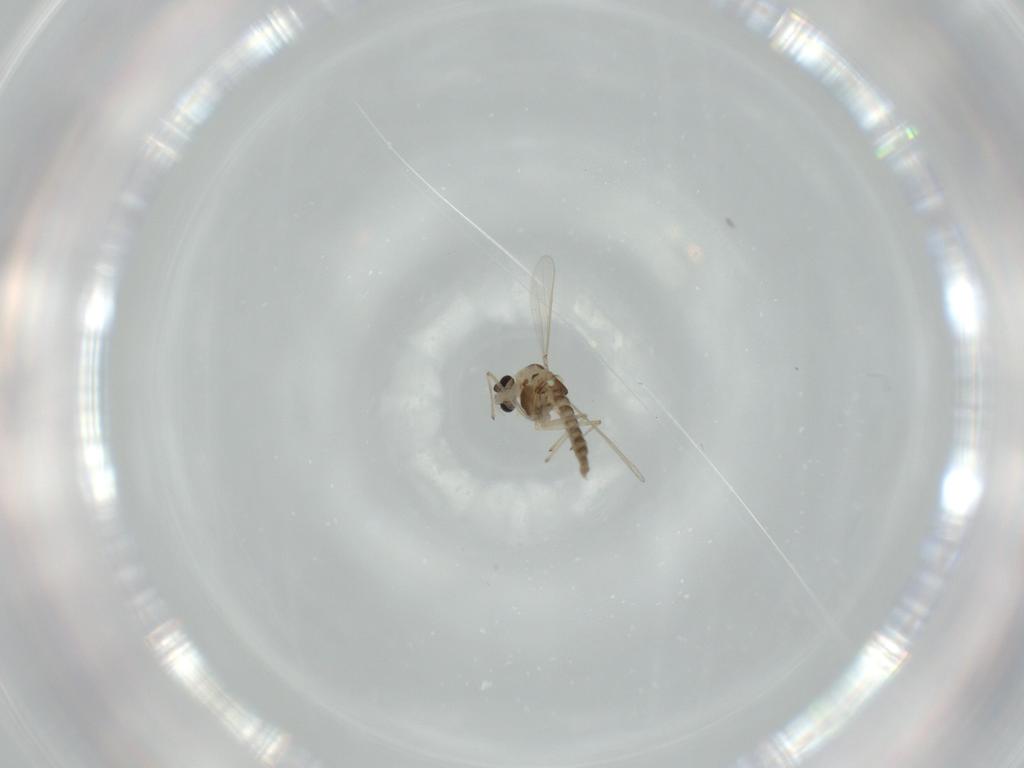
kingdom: Animalia
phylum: Arthropoda
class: Insecta
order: Diptera
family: Chironomidae
